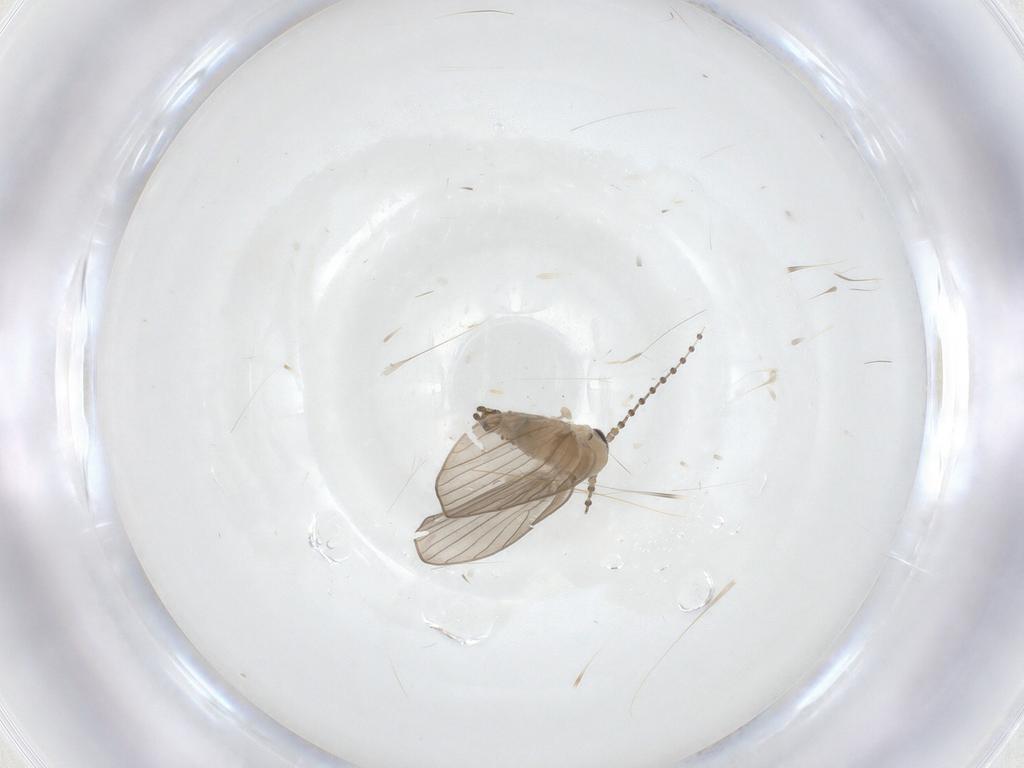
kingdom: Animalia
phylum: Arthropoda
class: Insecta
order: Diptera
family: Psychodidae
